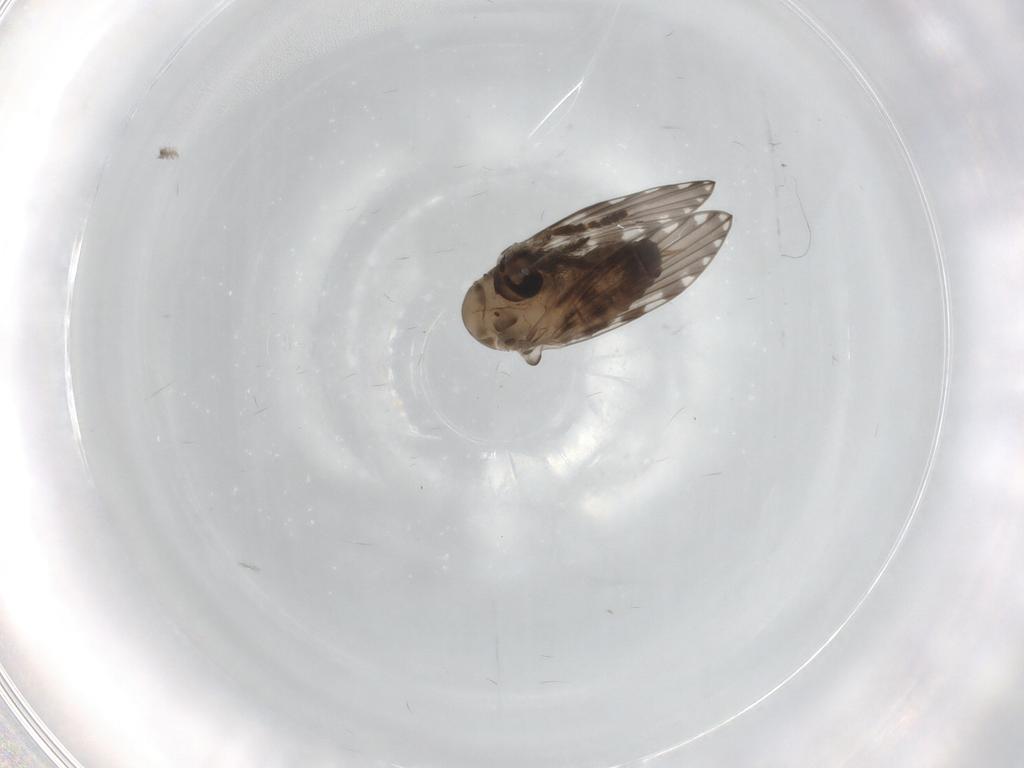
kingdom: Animalia
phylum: Arthropoda
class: Insecta
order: Diptera
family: Psychodidae
